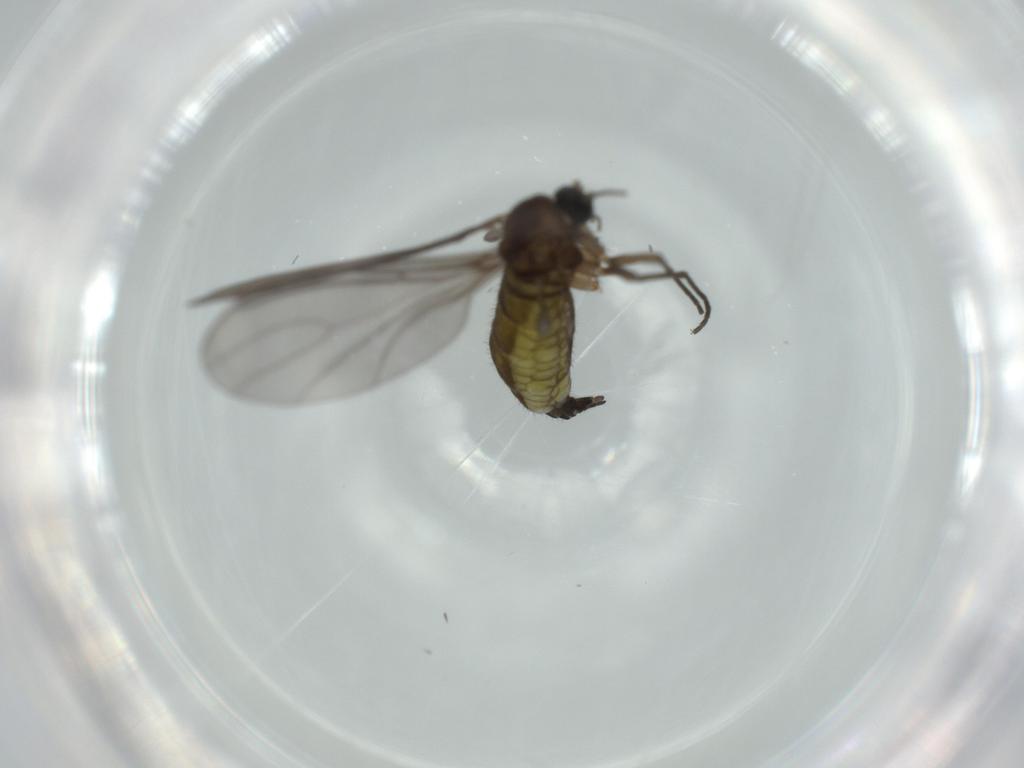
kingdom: Animalia
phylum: Arthropoda
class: Insecta
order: Diptera
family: Sciaridae
